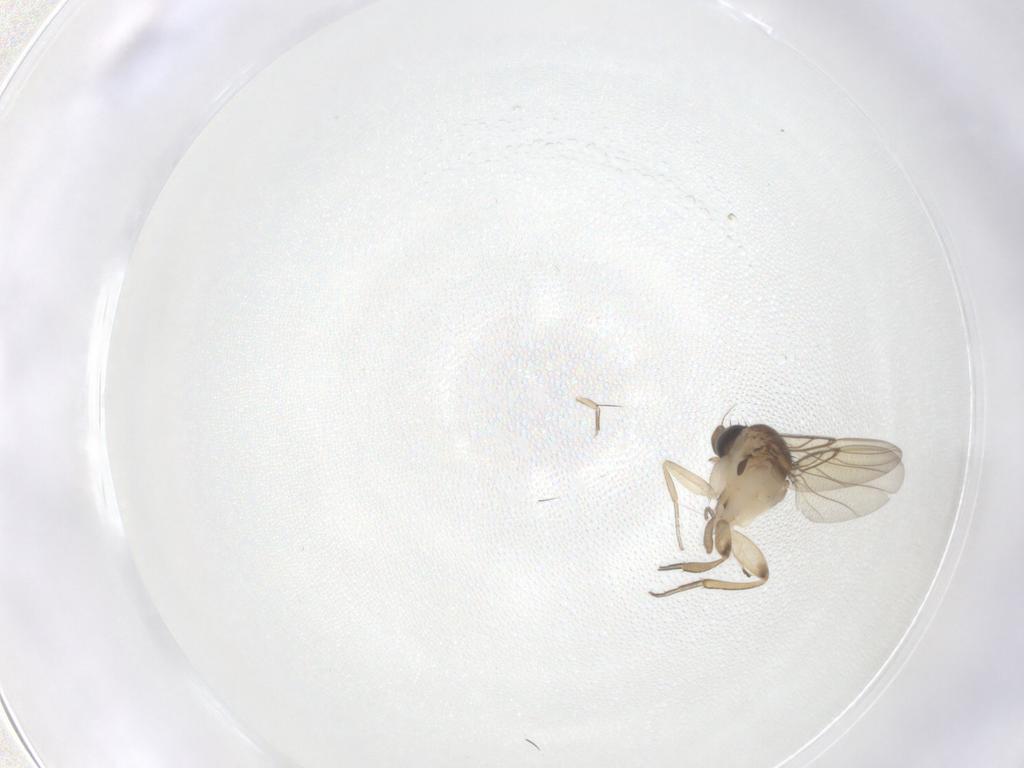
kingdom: Animalia
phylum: Arthropoda
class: Insecta
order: Diptera
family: Phoridae
